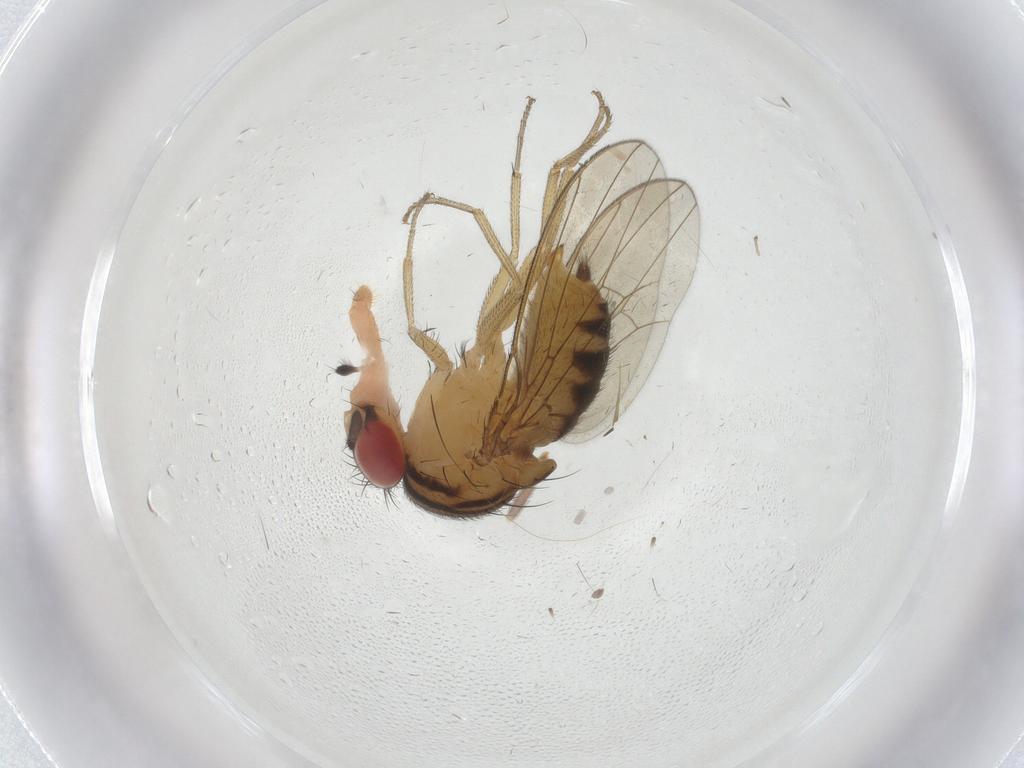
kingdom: Animalia
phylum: Arthropoda
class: Insecta
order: Diptera
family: Drosophilidae
